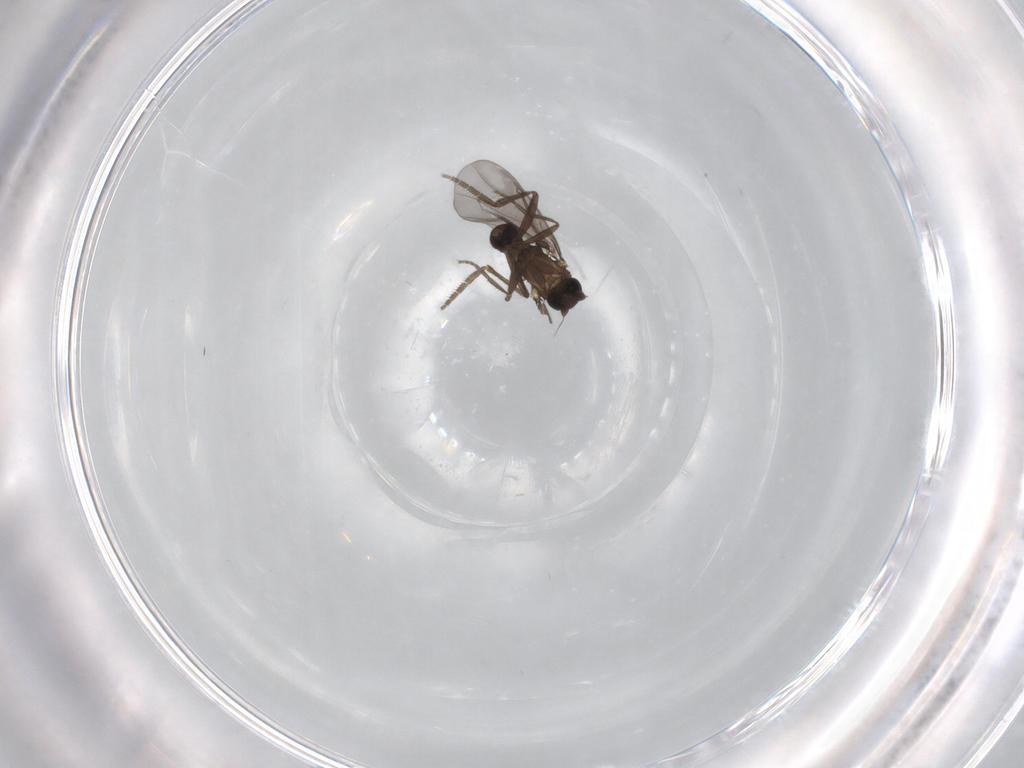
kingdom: Animalia
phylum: Arthropoda
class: Insecta
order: Diptera
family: Phoridae
